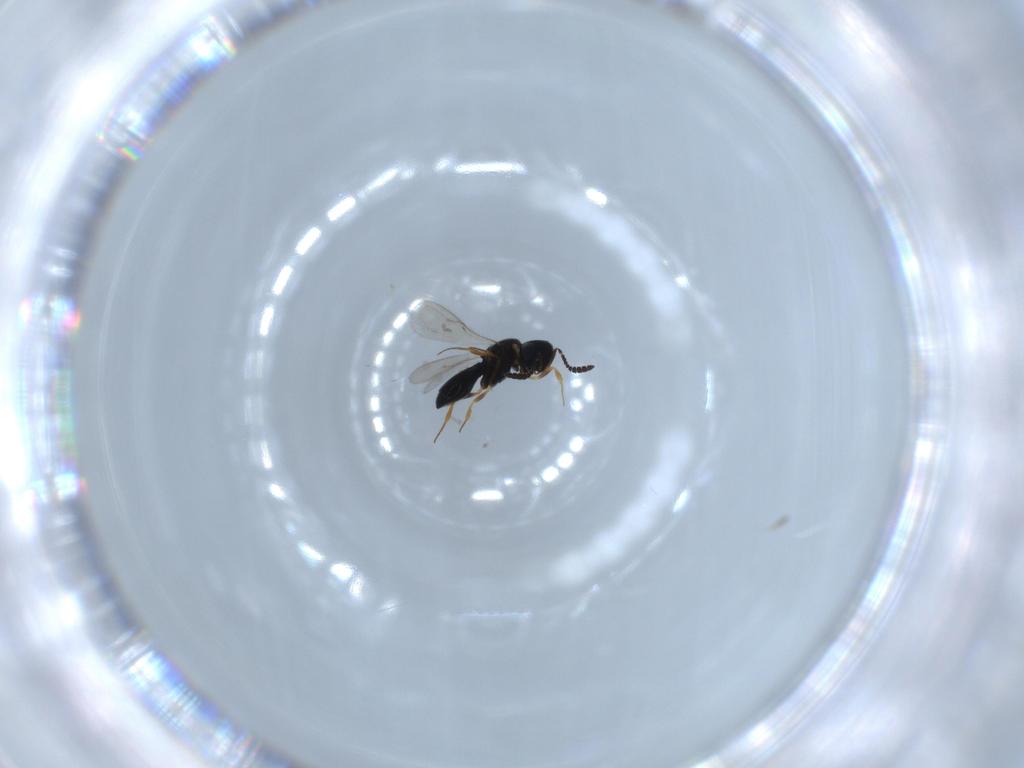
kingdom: Animalia
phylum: Arthropoda
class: Insecta
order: Hymenoptera
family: Scelionidae
